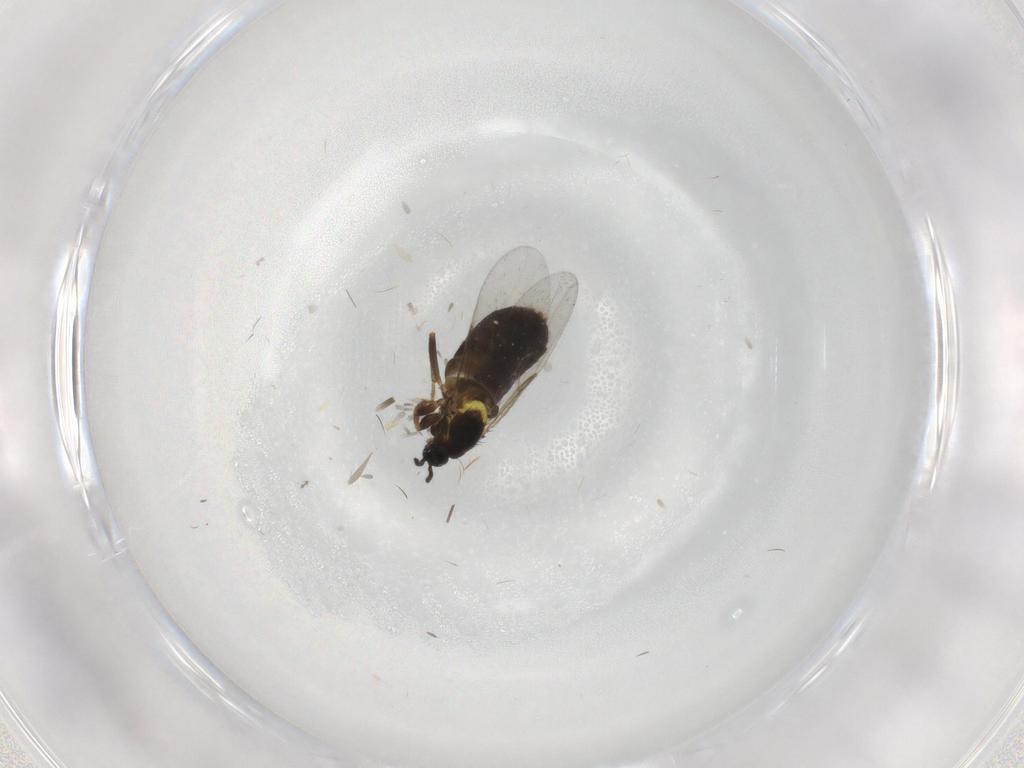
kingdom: Animalia
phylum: Arthropoda
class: Insecta
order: Diptera
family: Scatopsidae
